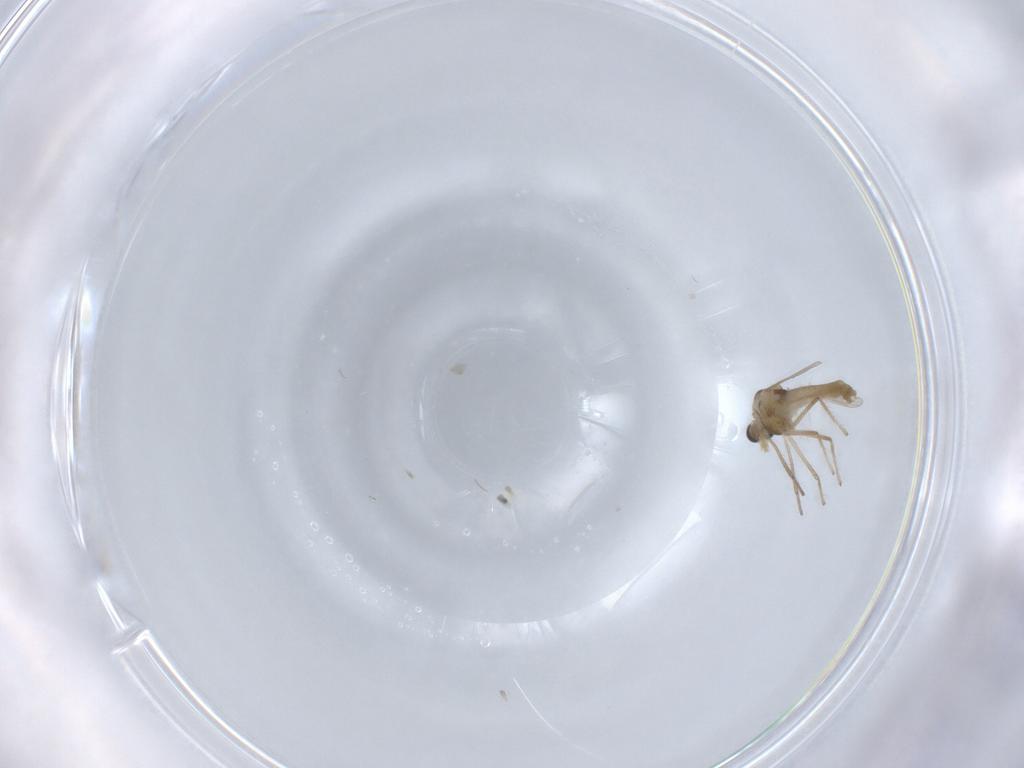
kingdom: Animalia
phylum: Arthropoda
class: Insecta
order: Diptera
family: Chironomidae
